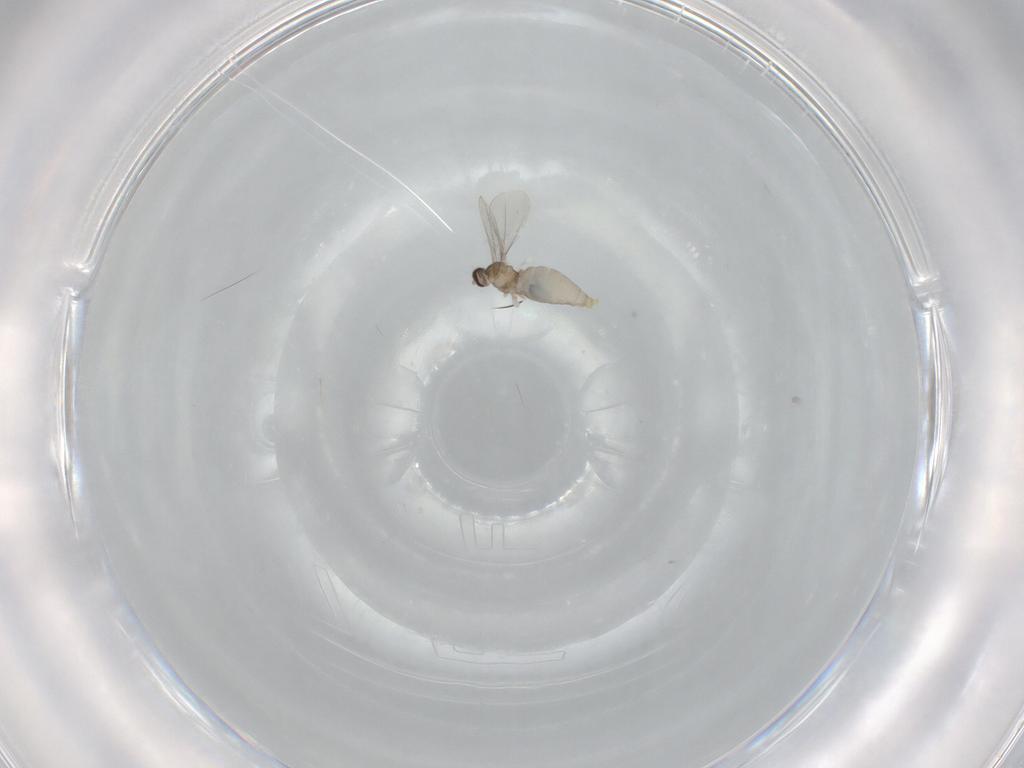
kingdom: Animalia
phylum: Arthropoda
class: Insecta
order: Diptera
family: Cecidomyiidae
